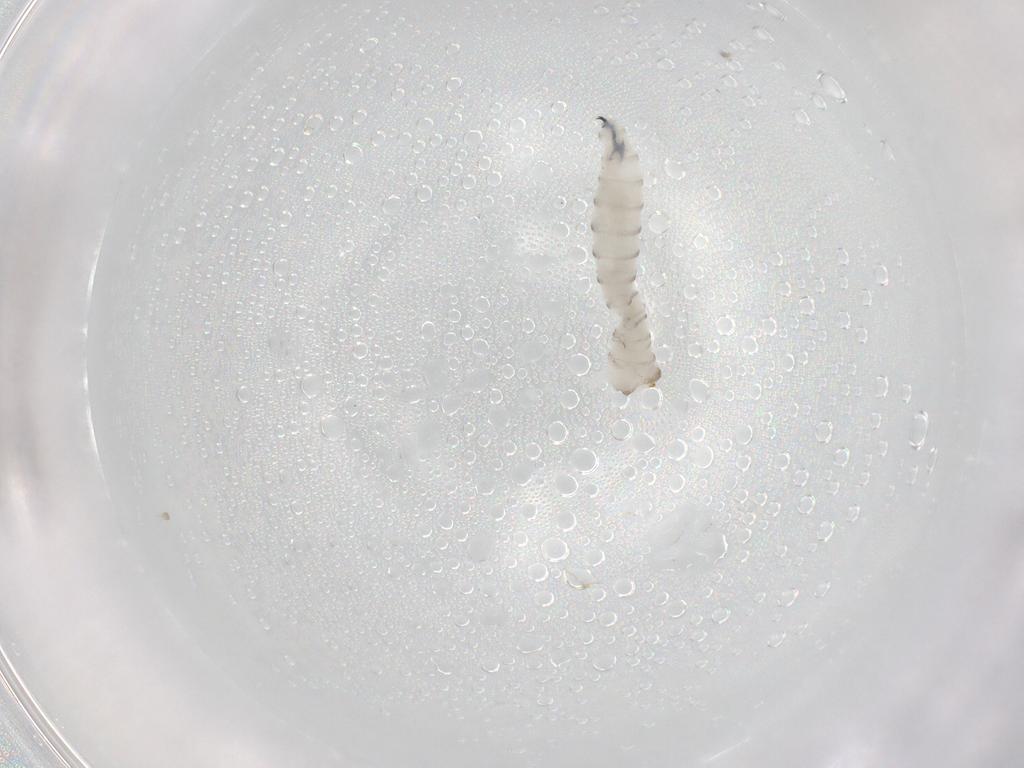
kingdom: Animalia
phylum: Arthropoda
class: Insecta
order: Diptera
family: Sarcophagidae
